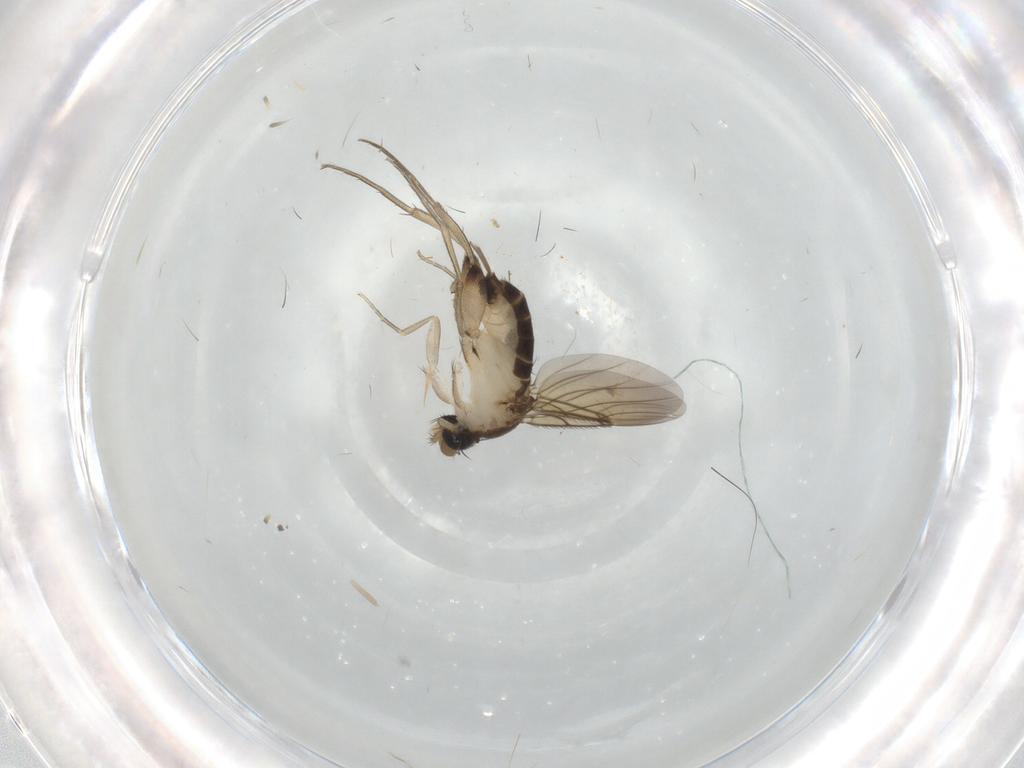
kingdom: Animalia
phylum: Arthropoda
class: Insecta
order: Diptera
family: Phoridae
